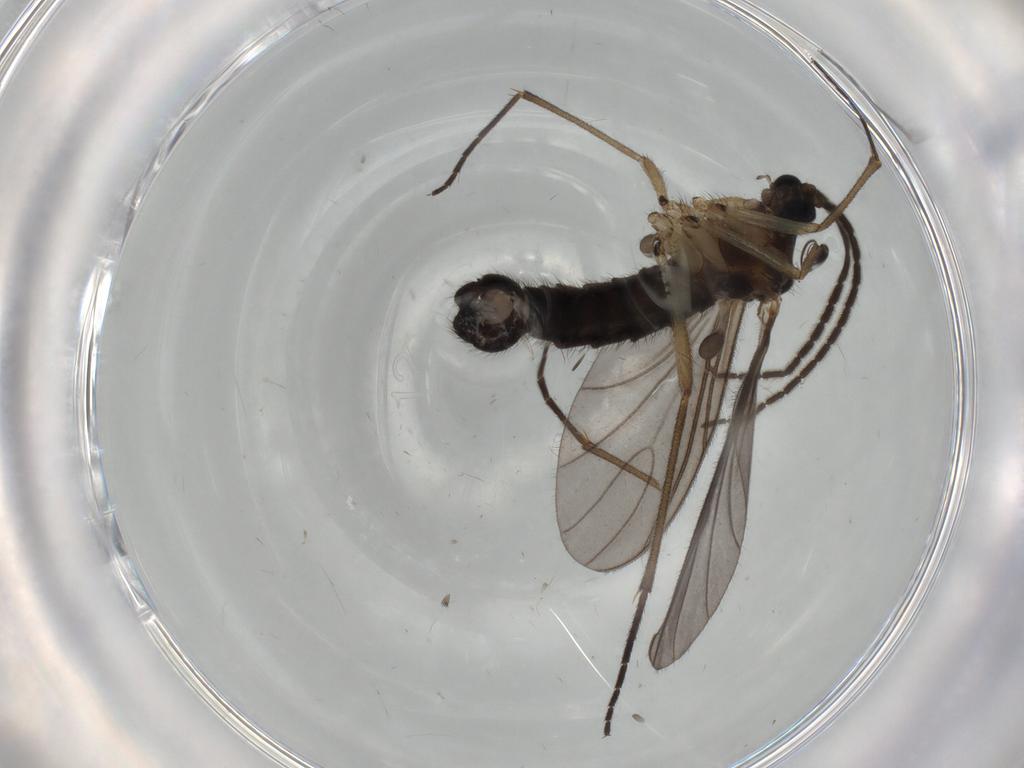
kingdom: Animalia
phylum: Arthropoda
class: Insecta
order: Diptera
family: Sciaridae
